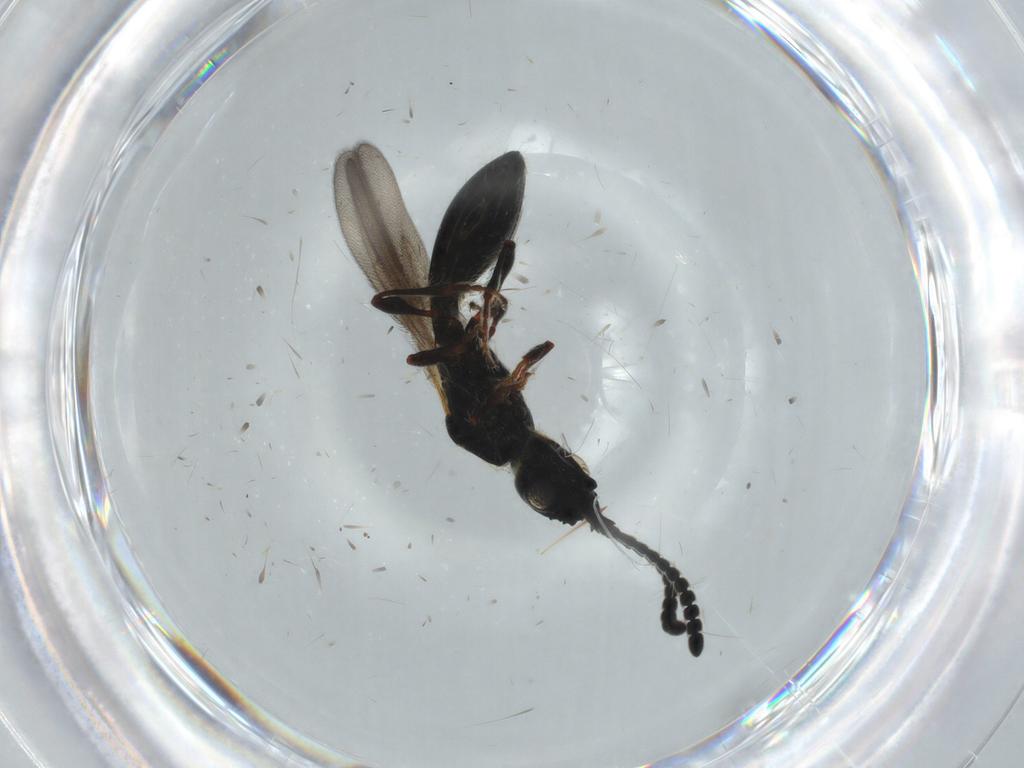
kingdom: Animalia
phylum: Arthropoda
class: Insecta
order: Hymenoptera
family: Diapriidae
